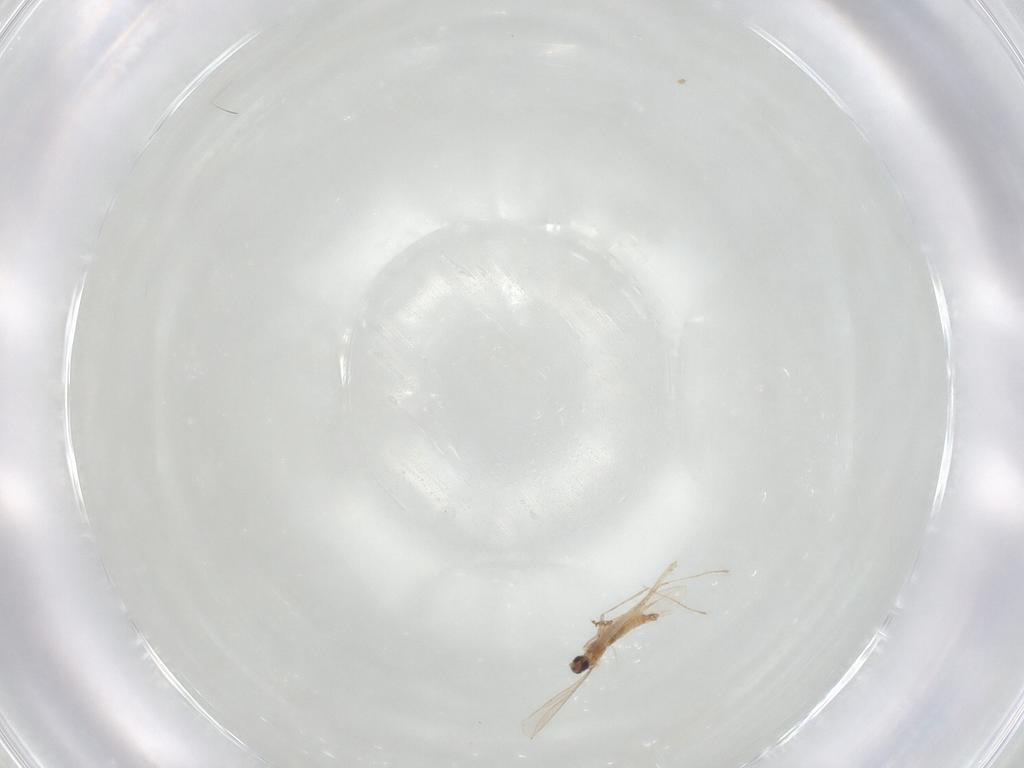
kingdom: Animalia
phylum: Arthropoda
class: Insecta
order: Diptera
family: Cecidomyiidae
